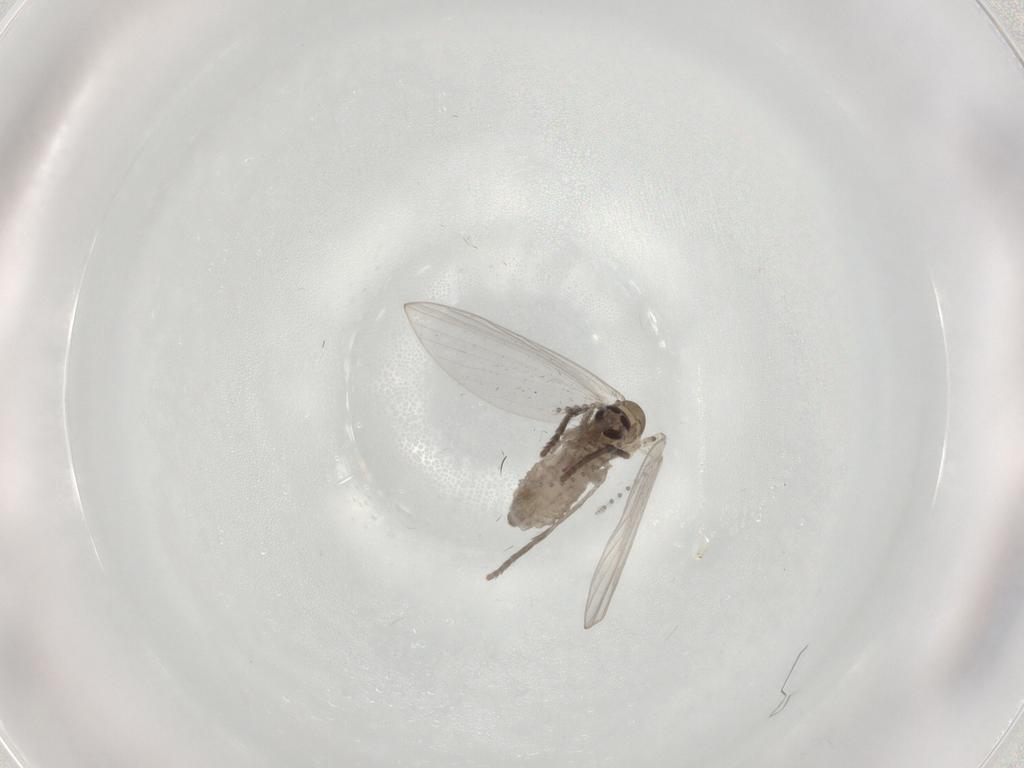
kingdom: Animalia
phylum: Arthropoda
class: Insecta
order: Diptera
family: Psychodidae
